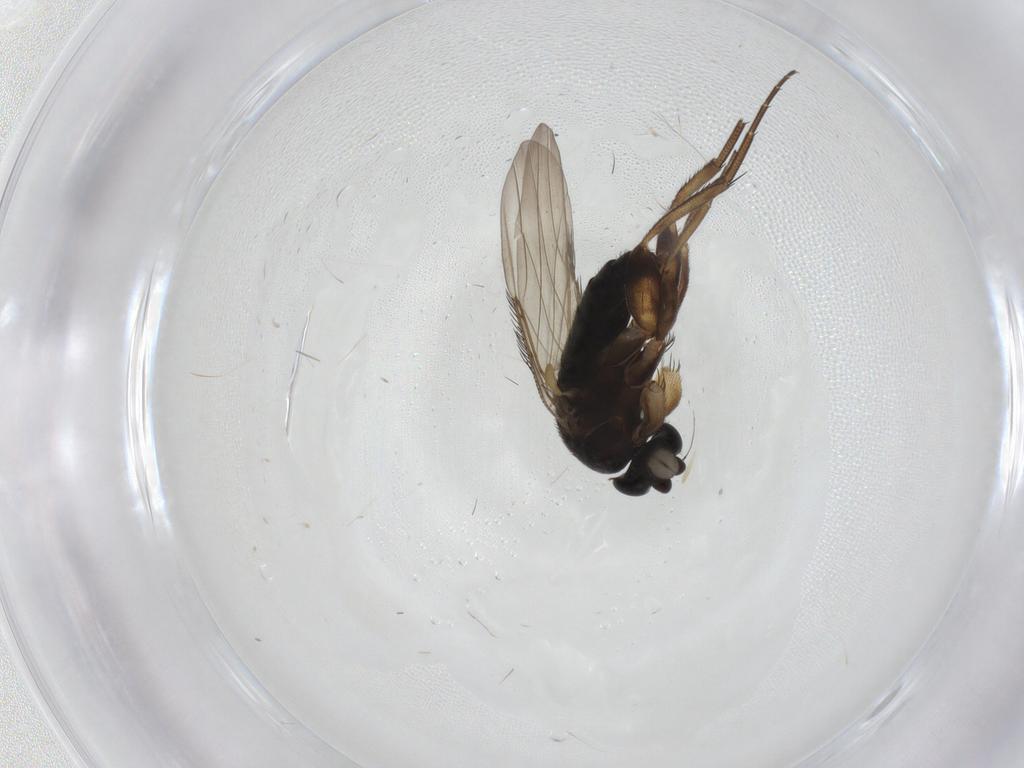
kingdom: Animalia
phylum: Arthropoda
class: Insecta
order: Diptera
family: Phoridae
